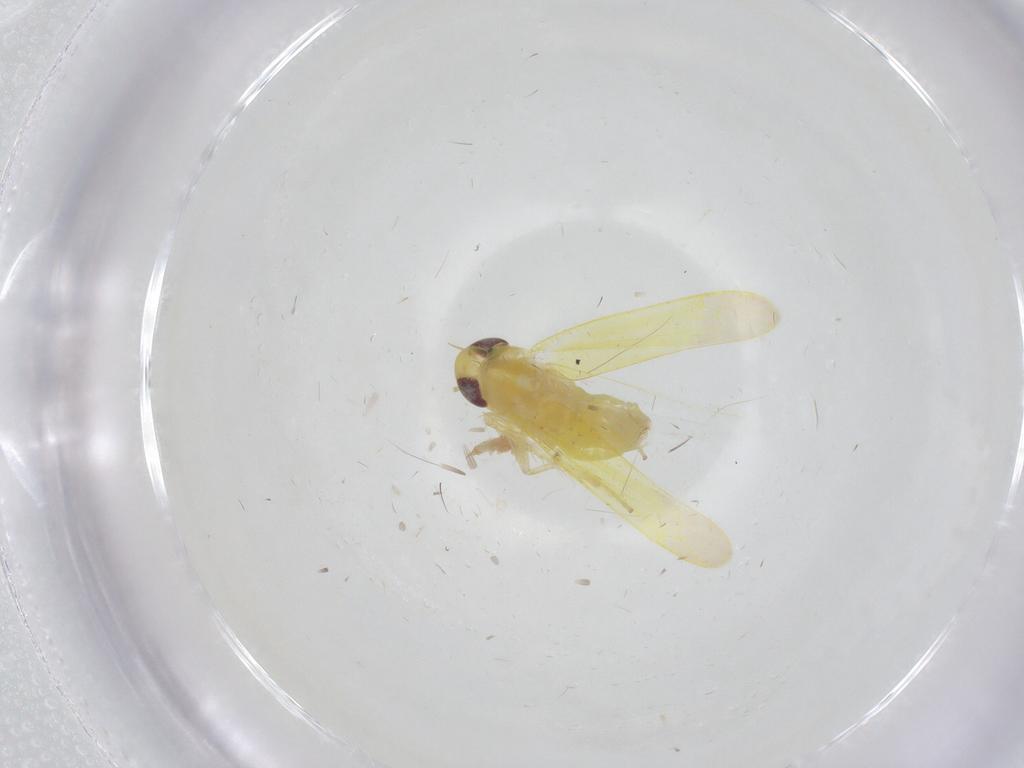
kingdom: Animalia
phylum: Arthropoda
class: Insecta
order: Hemiptera
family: Cicadellidae
